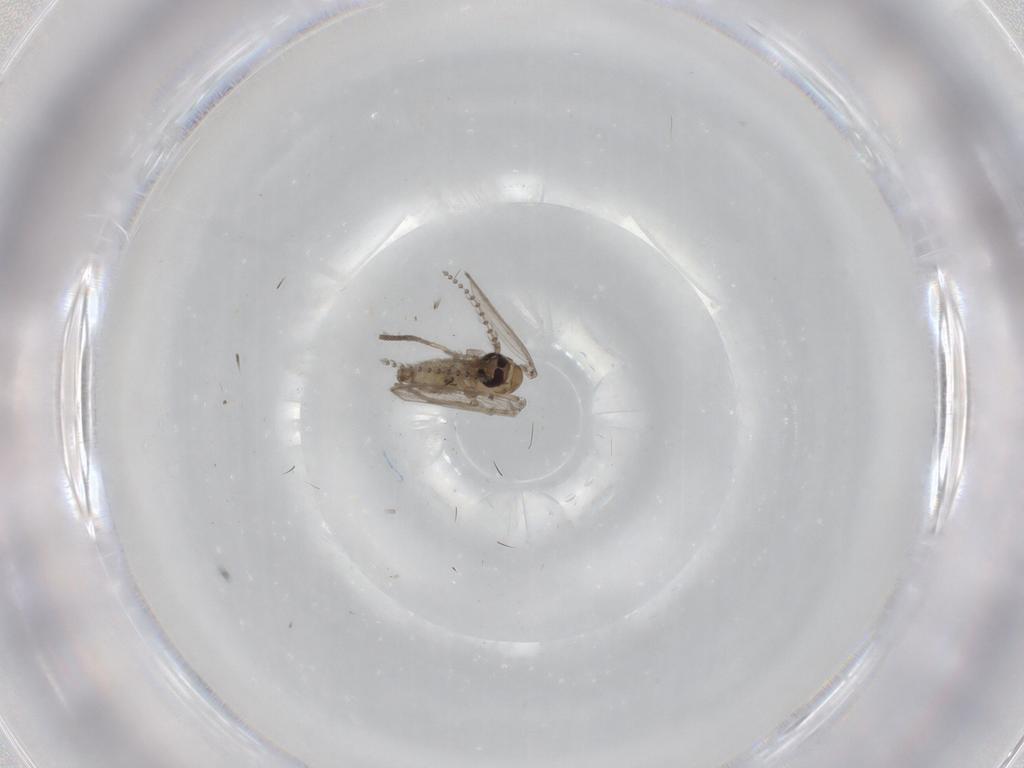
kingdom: Animalia
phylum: Arthropoda
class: Insecta
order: Diptera
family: Psychodidae
